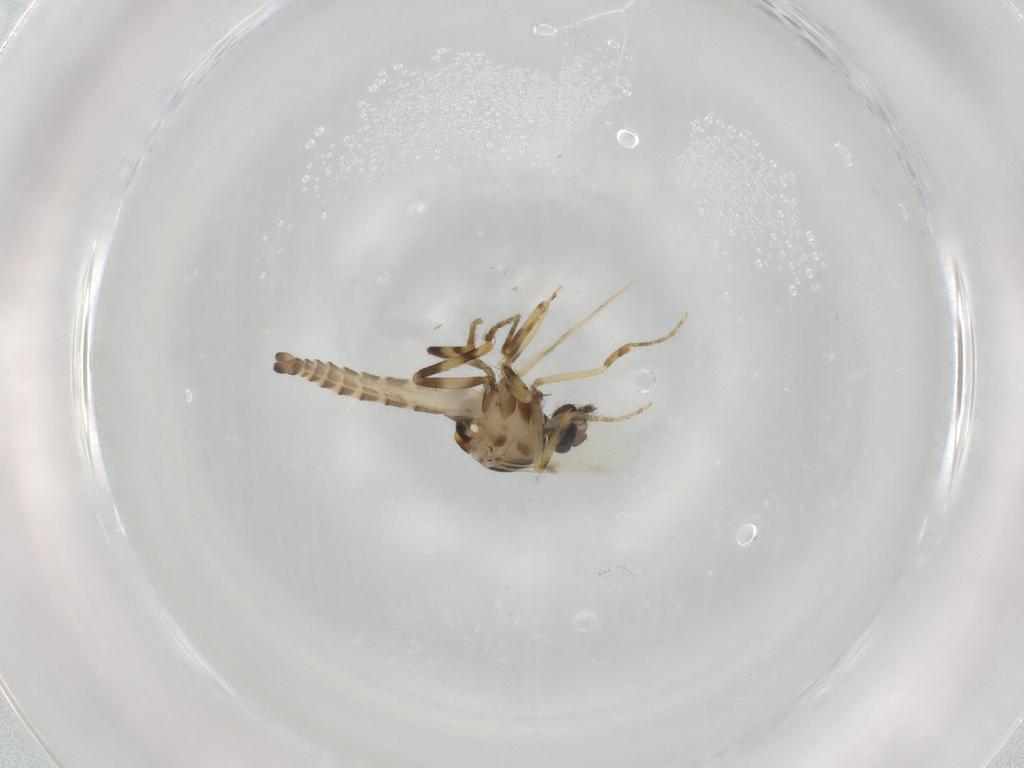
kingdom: Animalia
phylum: Arthropoda
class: Insecta
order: Diptera
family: Ceratopogonidae
